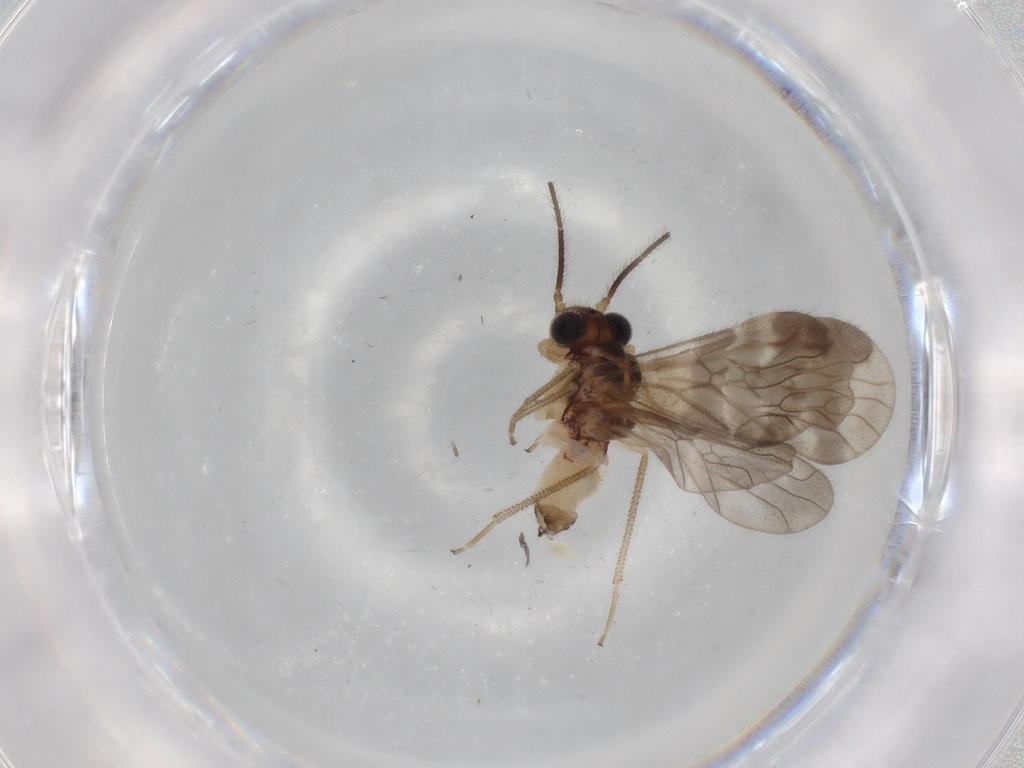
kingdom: Animalia
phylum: Arthropoda
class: Insecta
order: Psocodea
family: Amphipsocidae
